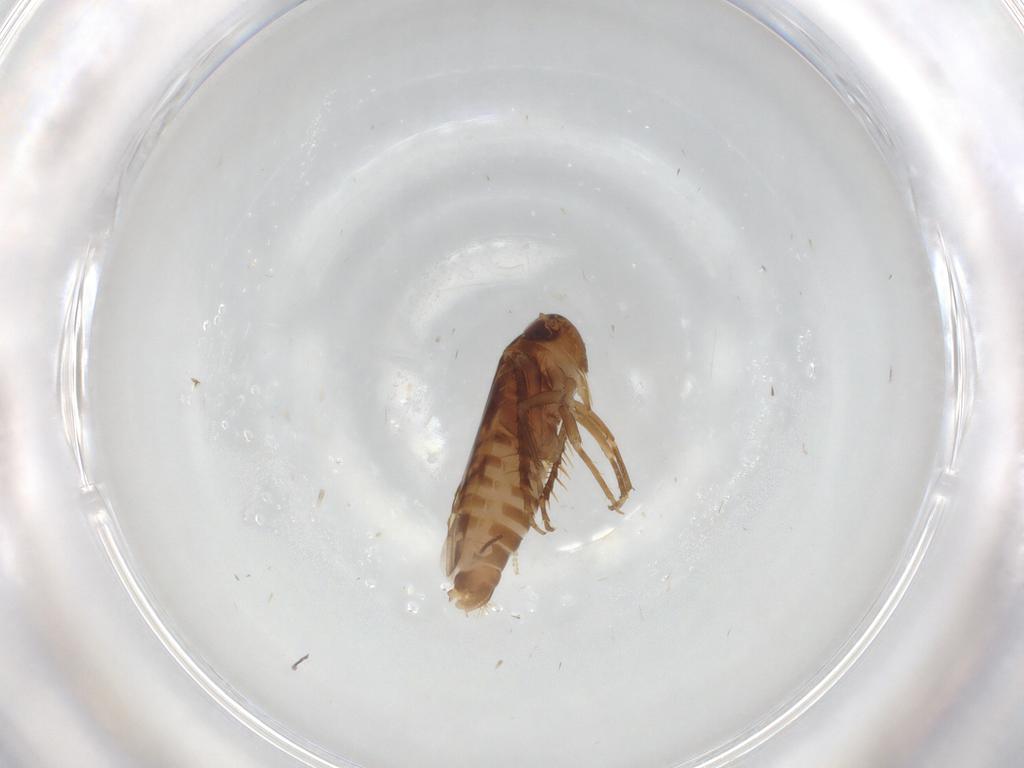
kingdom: Animalia
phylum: Arthropoda
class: Insecta
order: Hemiptera
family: Cicadellidae
